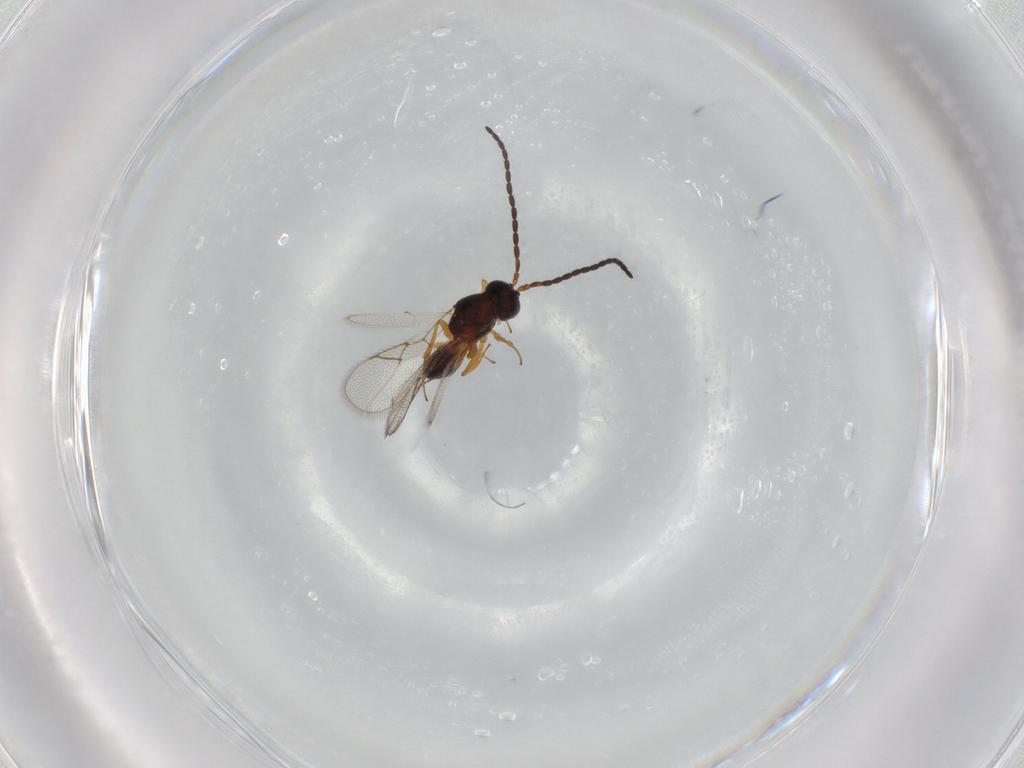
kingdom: Animalia
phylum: Arthropoda
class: Insecta
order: Hymenoptera
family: Figitidae
